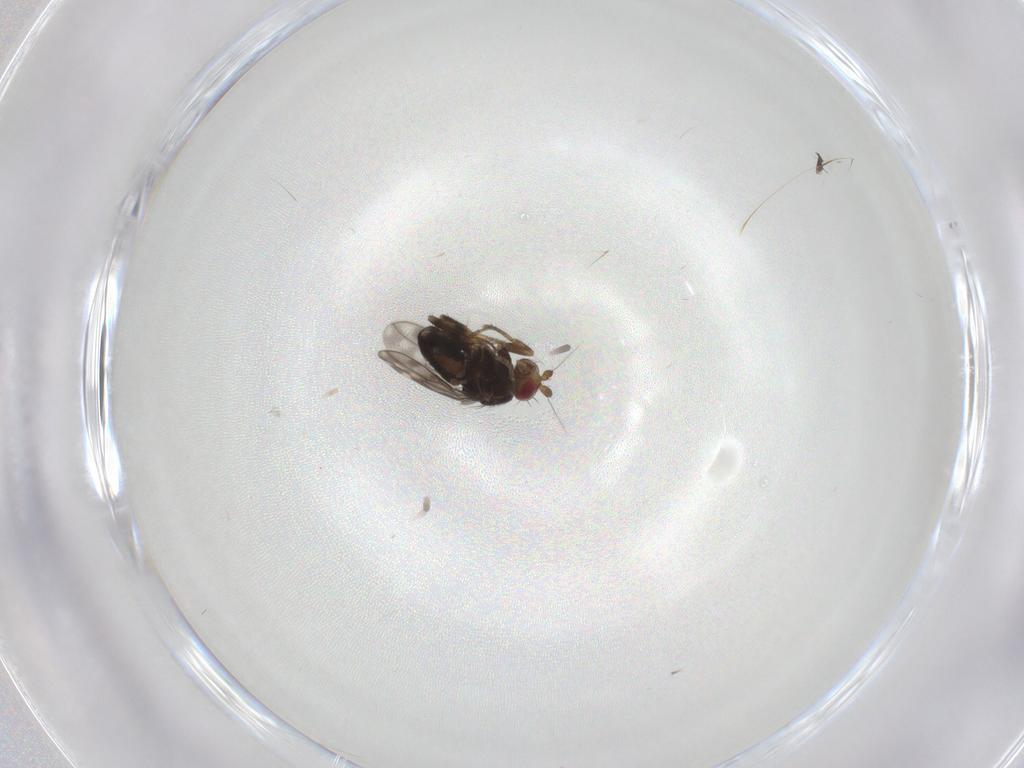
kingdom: Animalia
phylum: Arthropoda
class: Insecta
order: Diptera
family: Sphaeroceridae
